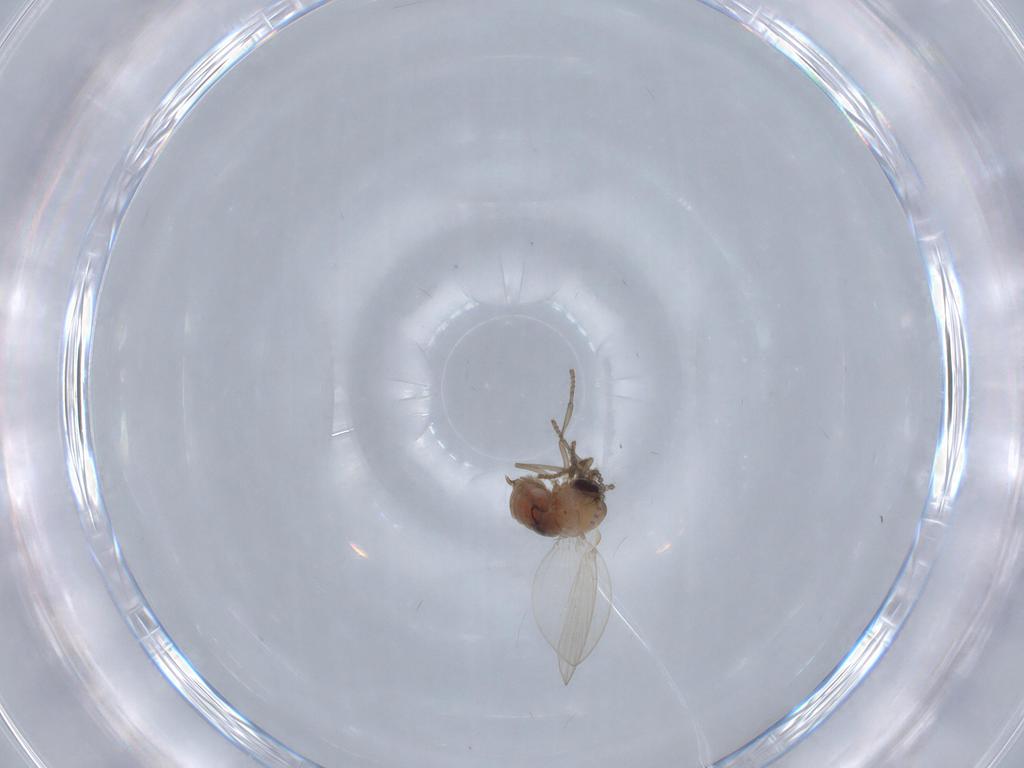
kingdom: Animalia
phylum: Arthropoda
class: Insecta
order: Diptera
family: Psychodidae
